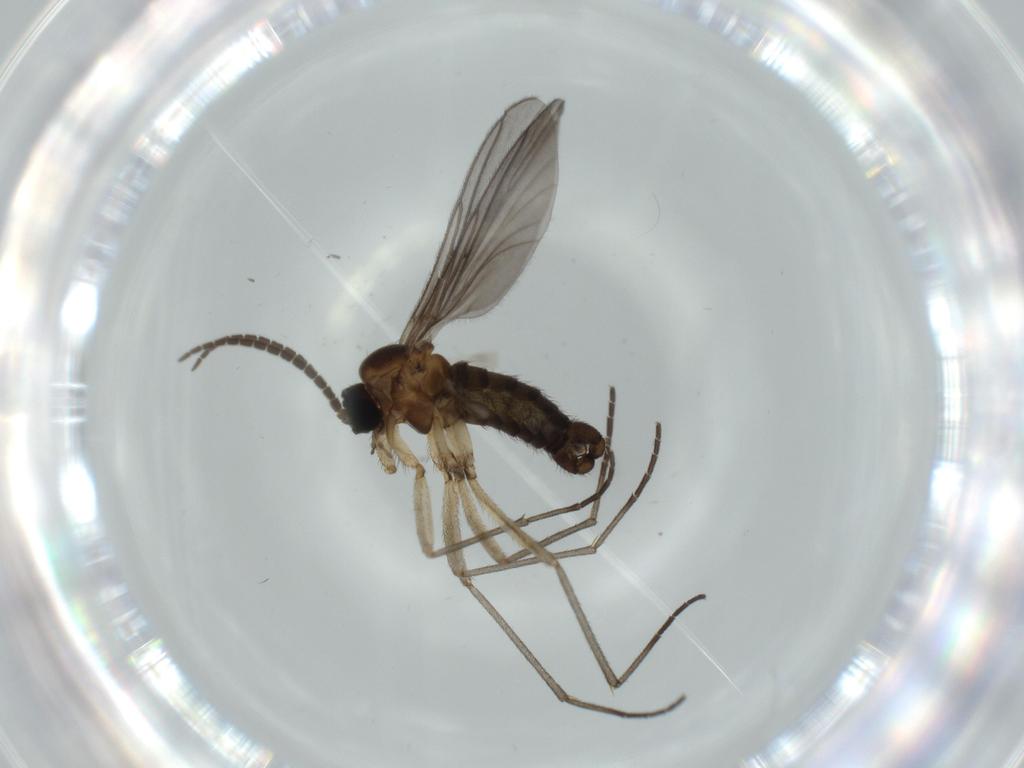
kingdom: Animalia
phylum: Arthropoda
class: Insecta
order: Diptera
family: Sciaridae
